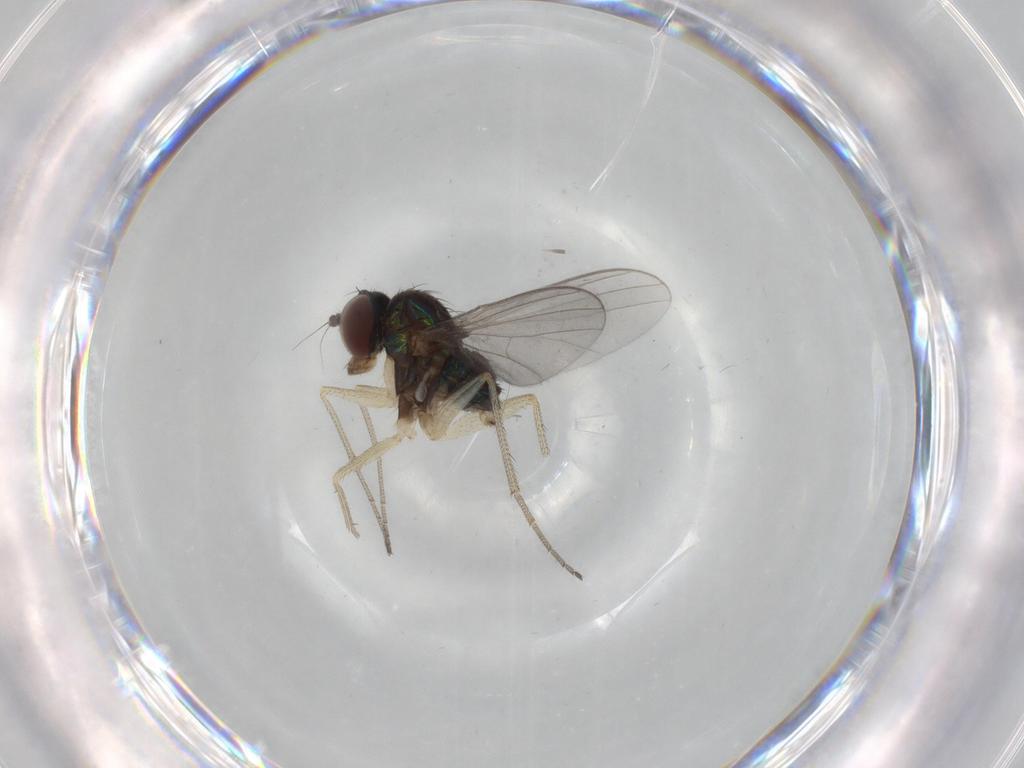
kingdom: Animalia
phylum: Arthropoda
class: Insecta
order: Diptera
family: Dolichopodidae
